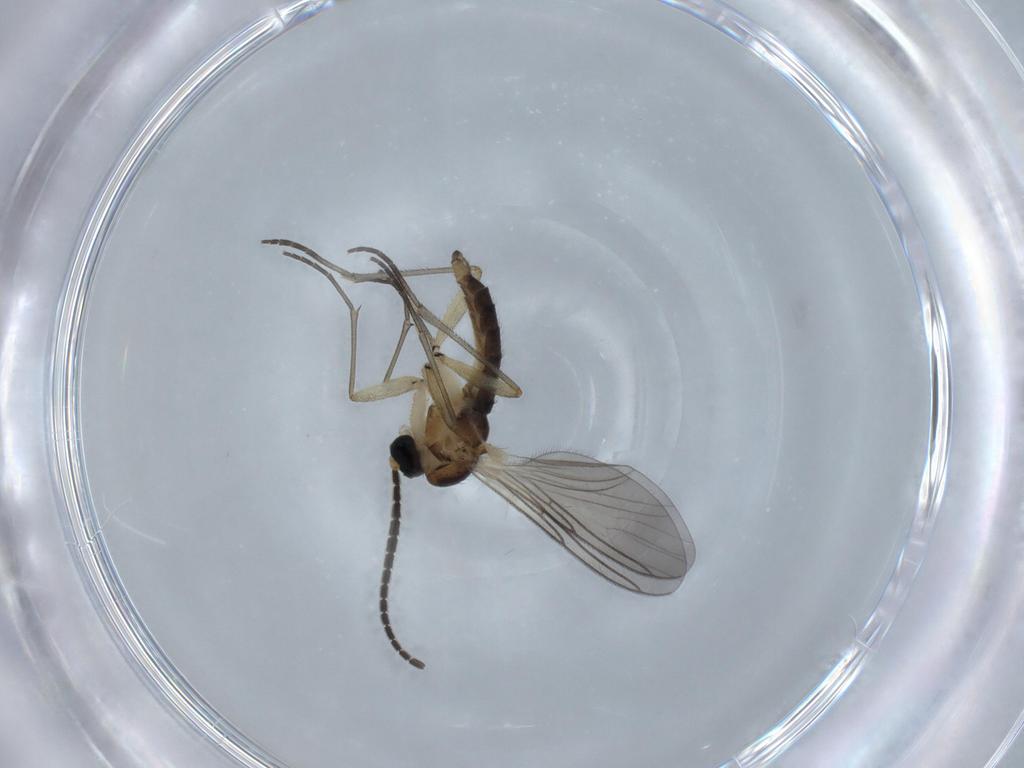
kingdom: Animalia
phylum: Arthropoda
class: Insecta
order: Diptera
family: Sciaridae
